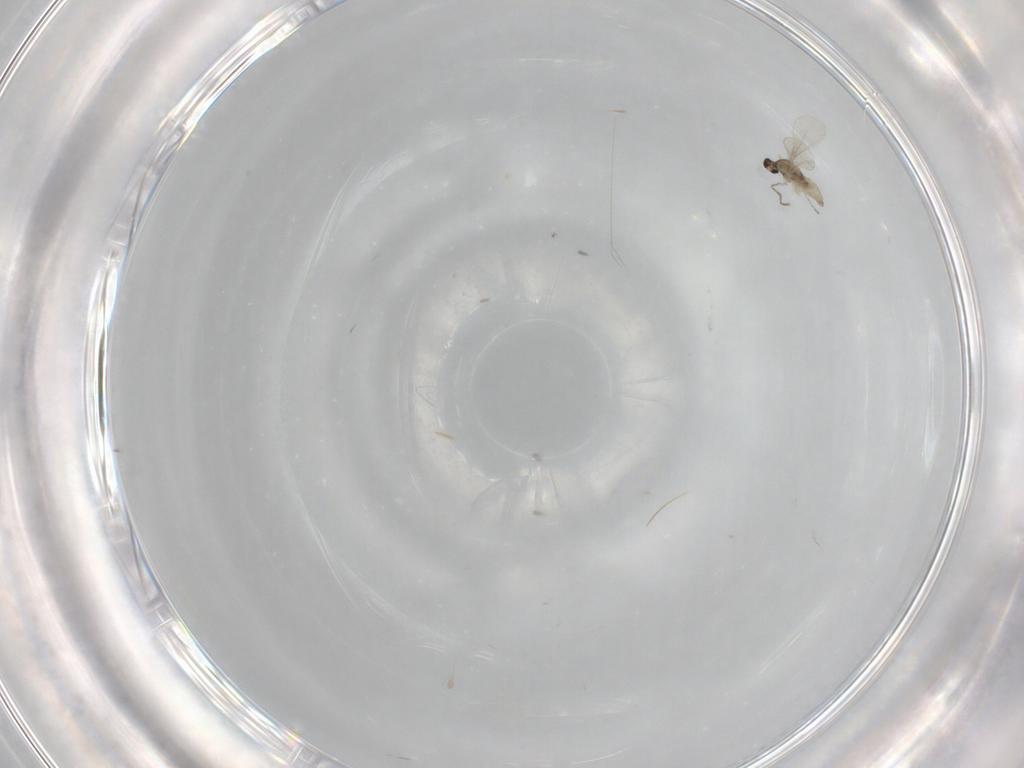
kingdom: Animalia
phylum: Arthropoda
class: Insecta
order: Diptera
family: Cecidomyiidae
